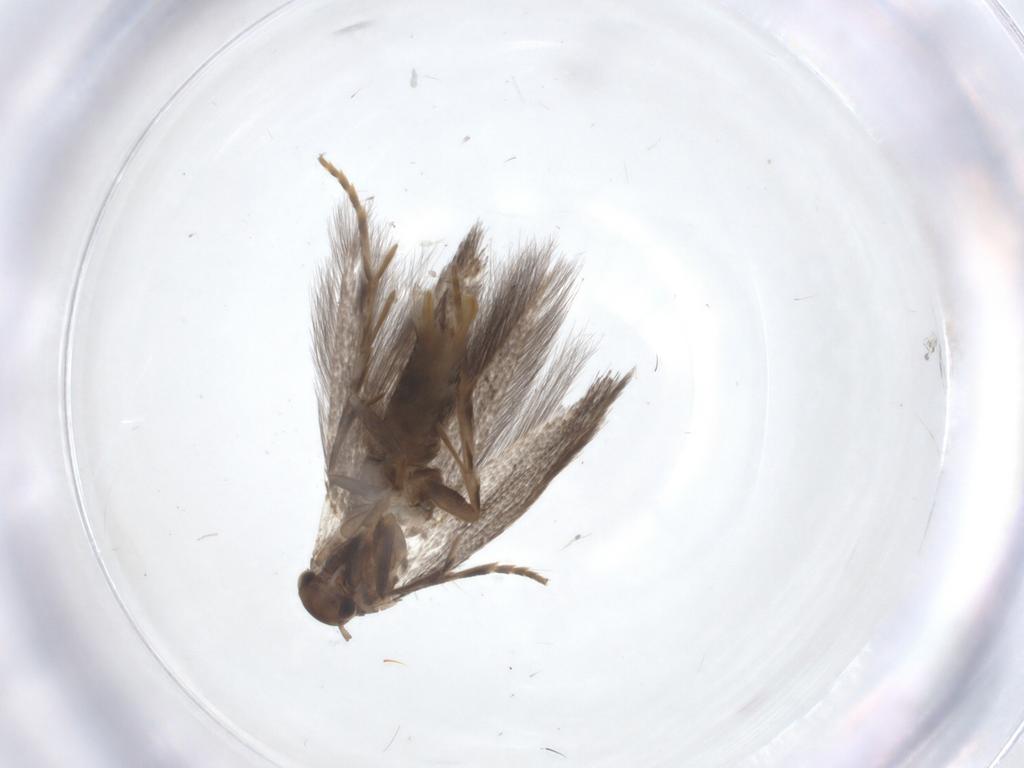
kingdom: Animalia
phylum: Arthropoda
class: Insecta
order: Lepidoptera
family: Elachistidae
